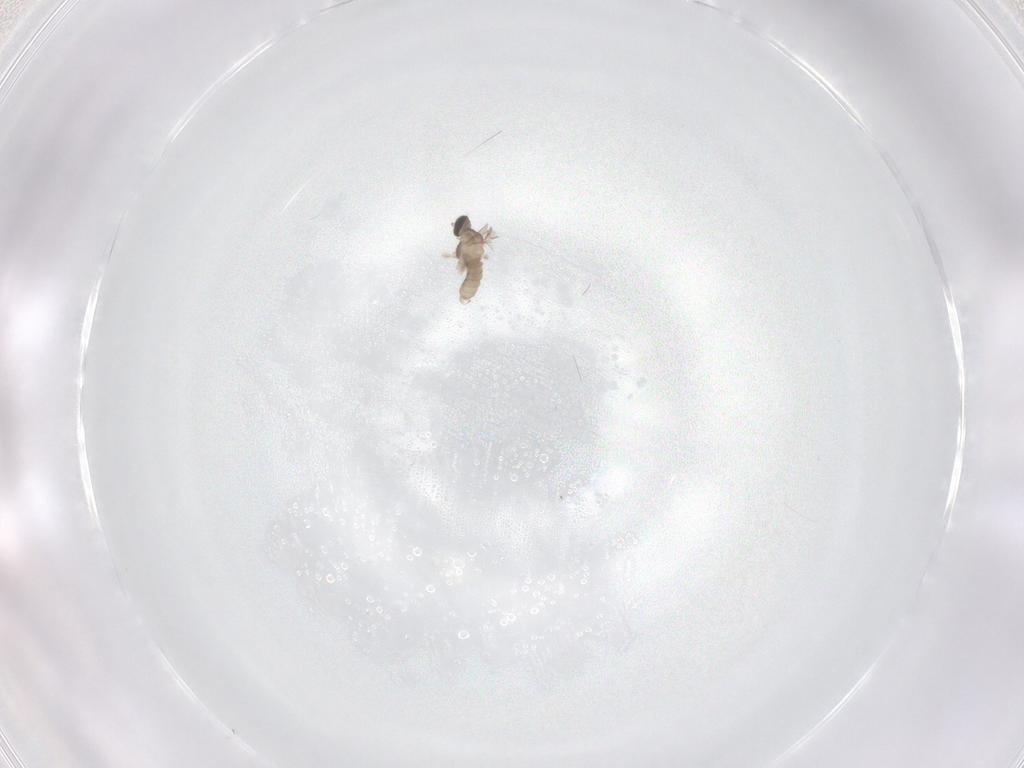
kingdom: Animalia
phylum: Arthropoda
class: Insecta
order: Diptera
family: Cecidomyiidae
